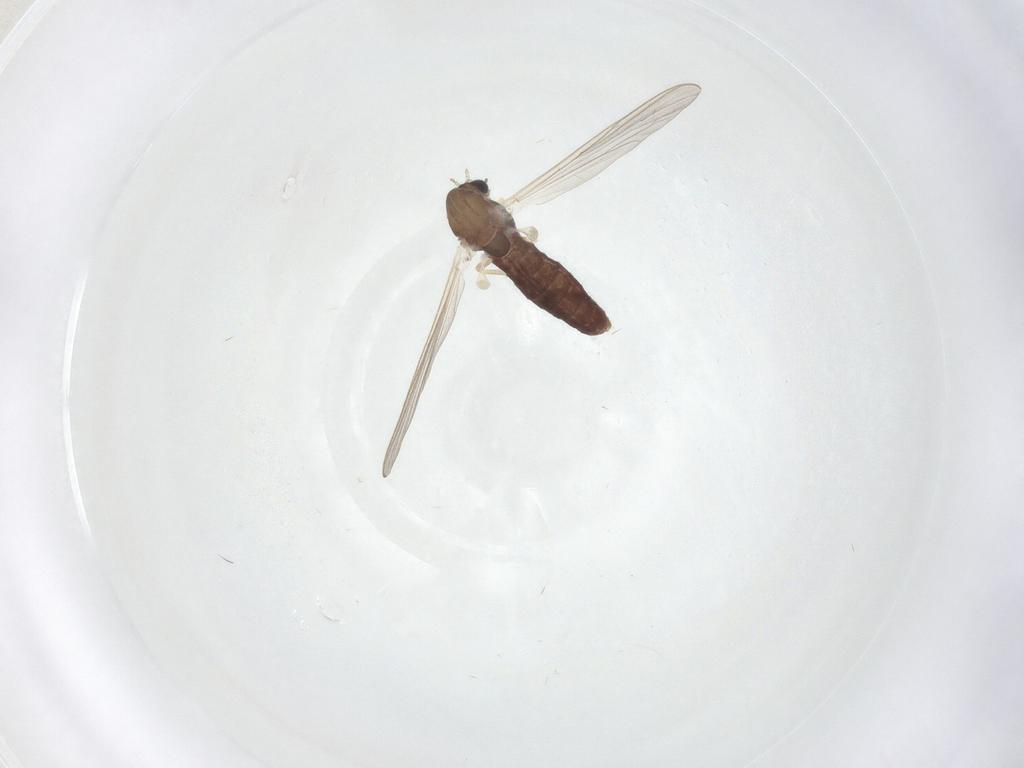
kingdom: Animalia
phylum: Arthropoda
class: Insecta
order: Diptera
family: Chironomidae
